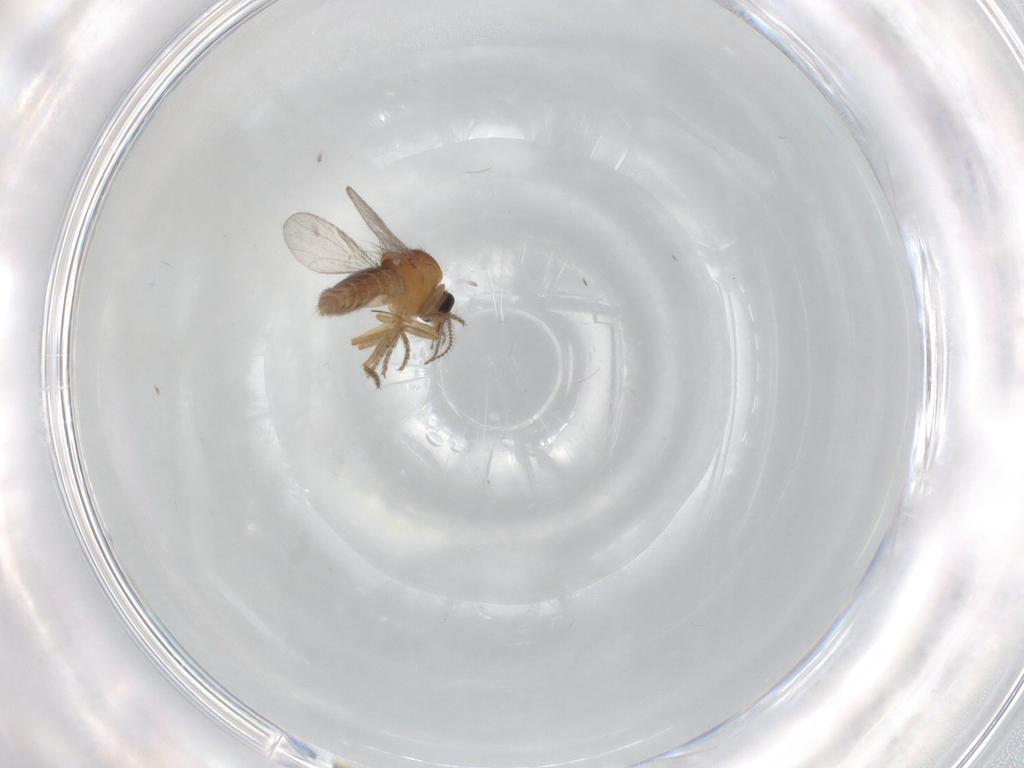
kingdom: Animalia
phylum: Arthropoda
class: Insecta
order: Diptera
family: Ceratopogonidae
